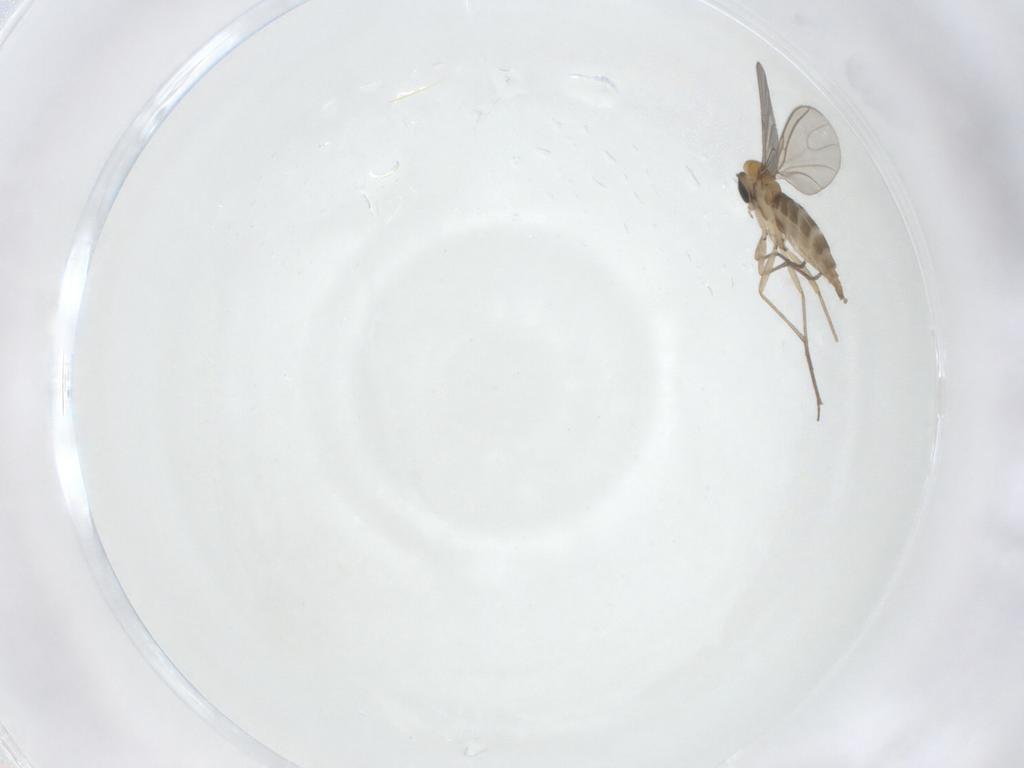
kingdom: Animalia
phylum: Arthropoda
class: Insecta
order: Diptera
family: Sciaridae
